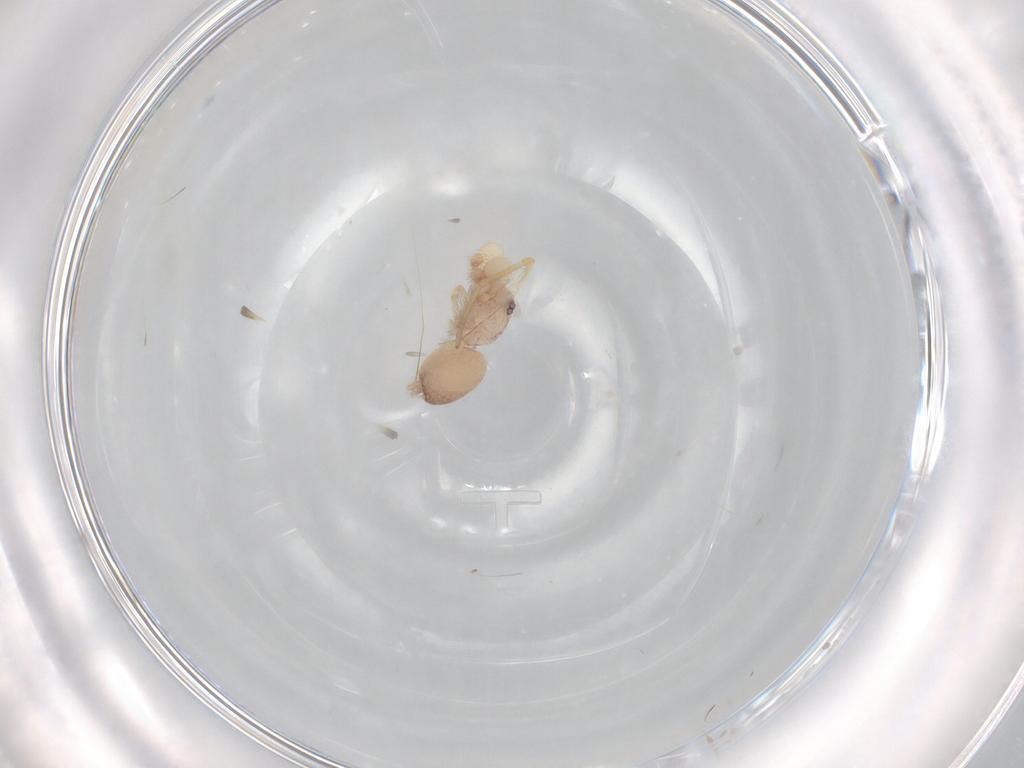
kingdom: Animalia
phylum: Arthropoda
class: Arachnida
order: Araneae
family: Idiopidae
